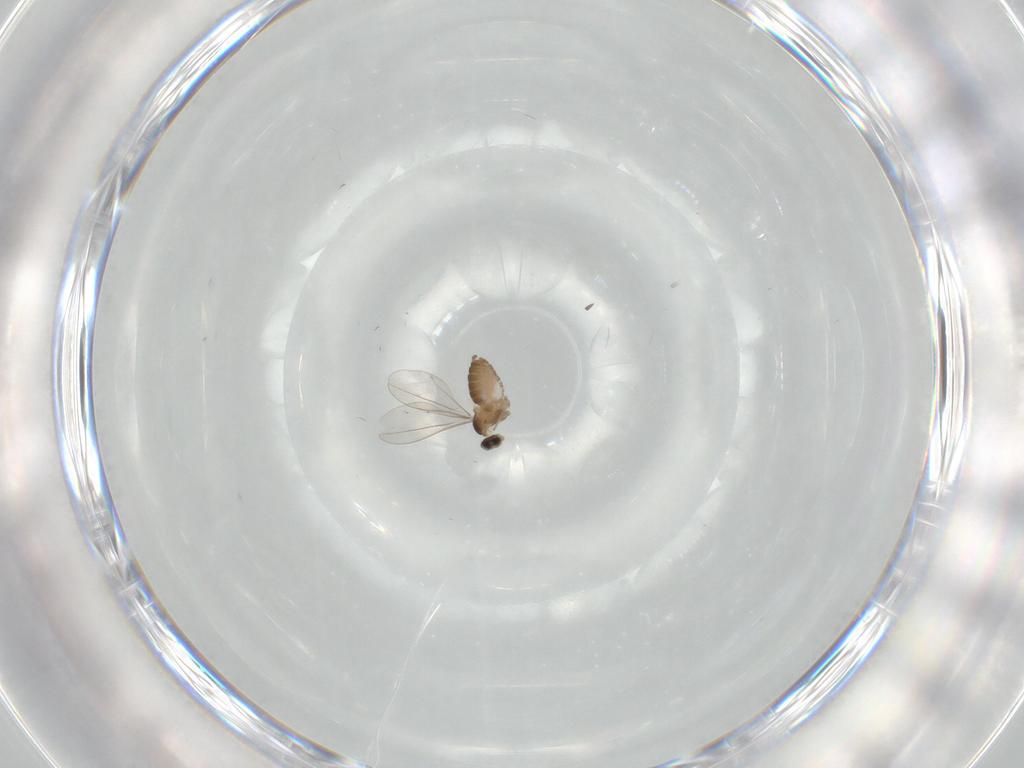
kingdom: Animalia
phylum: Arthropoda
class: Insecta
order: Diptera
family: Cecidomyiidae
